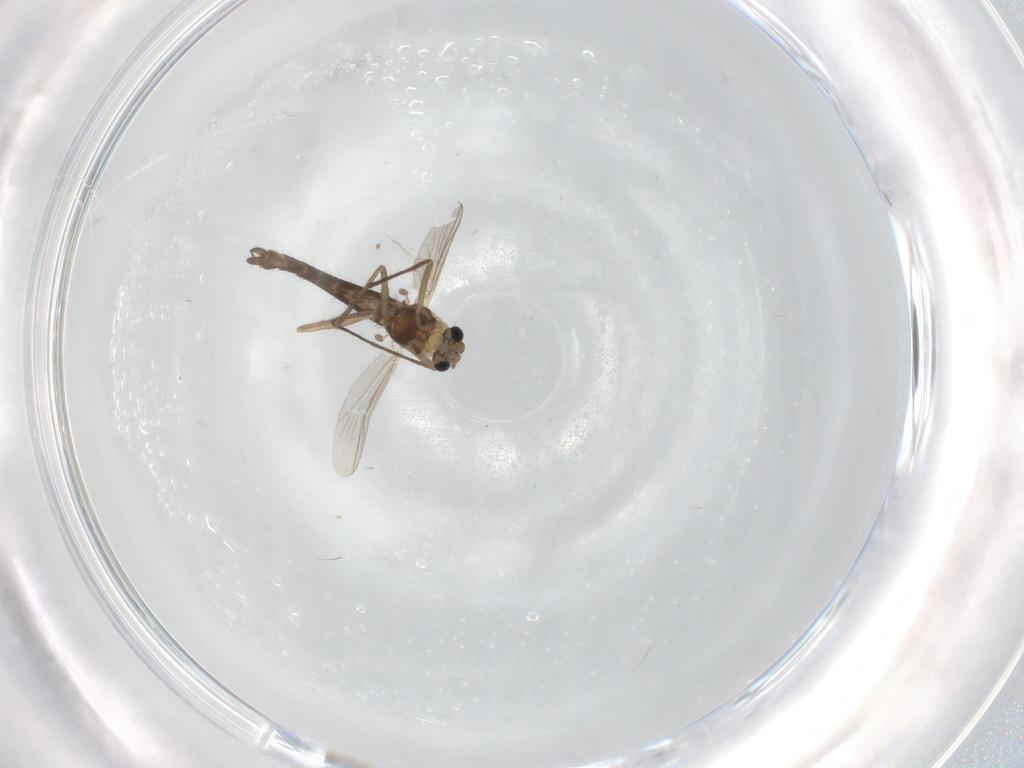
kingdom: Animalia
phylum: Arthropoda
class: Insecta
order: Diptera
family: Chironomidae
